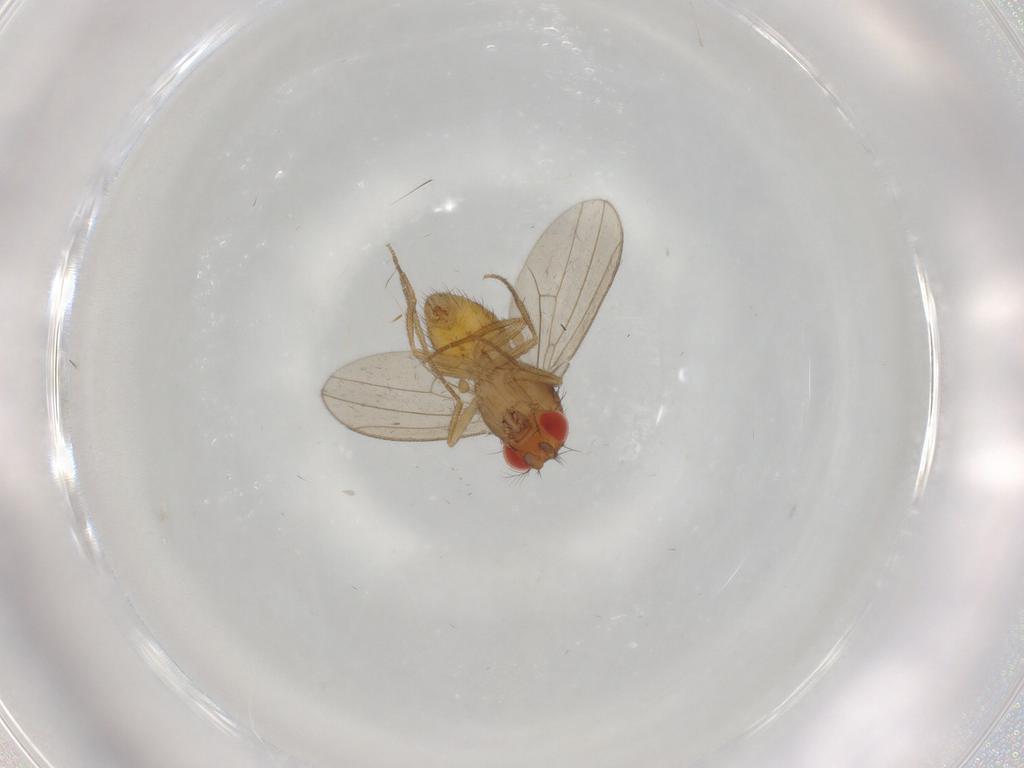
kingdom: Animalia
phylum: Arthropoda
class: Insecta
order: Diptera
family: Drosophilidae
